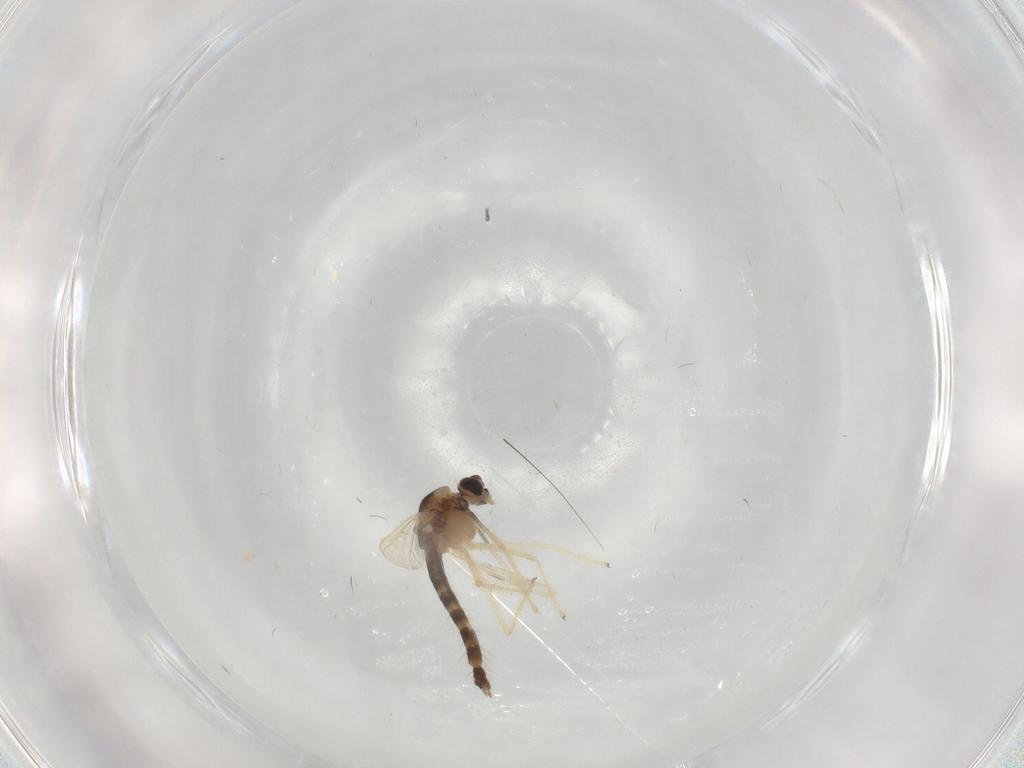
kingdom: Animalia
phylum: Arthropoda
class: Insecta
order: Diptera
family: Chironomidae
